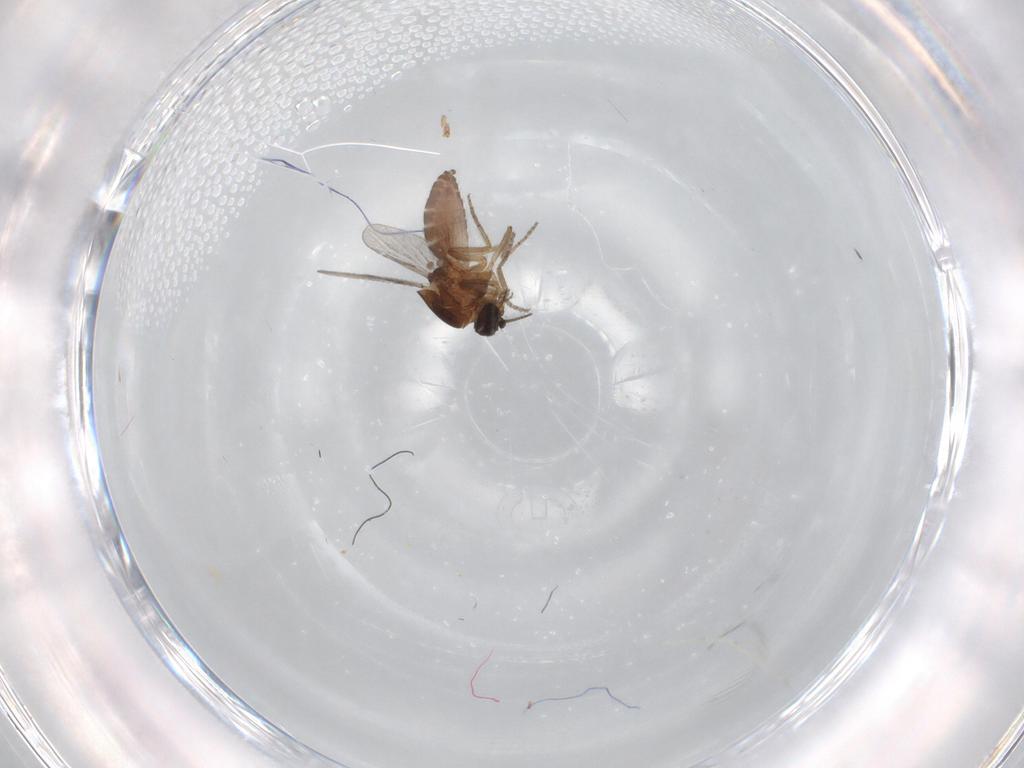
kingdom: Animalia
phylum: Arthropoda
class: Insecta
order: Diptera
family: Ceratopogonidae
